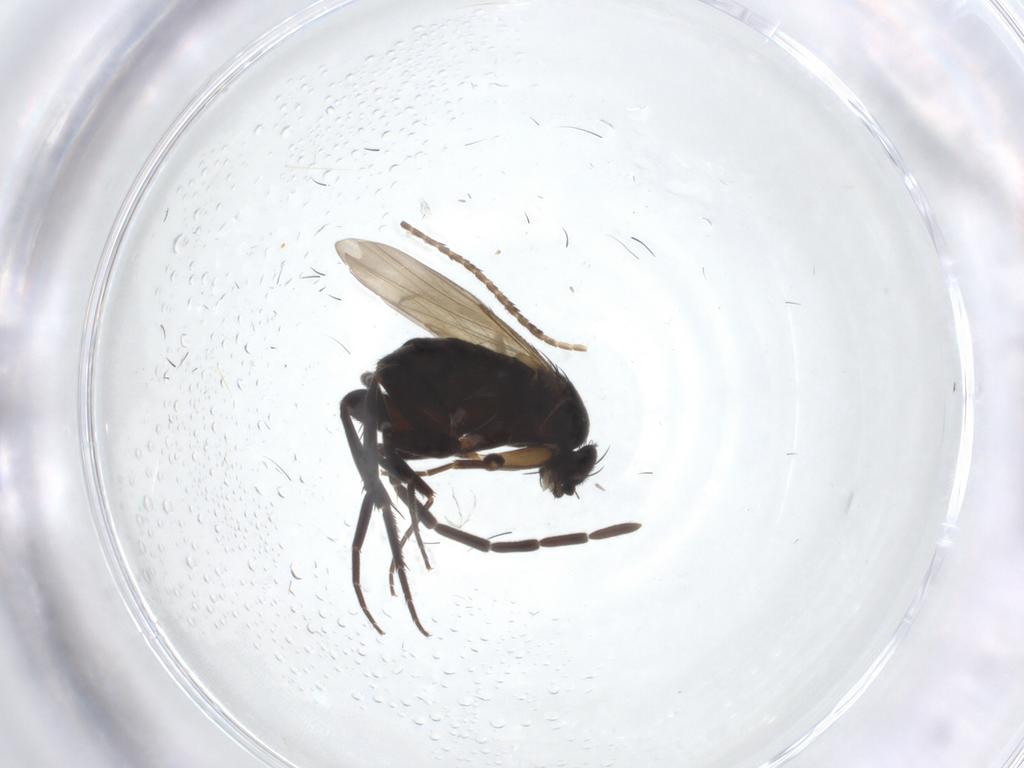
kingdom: Animalia
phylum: Arthropoda
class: Insecta
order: Diptera
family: Phoridae
